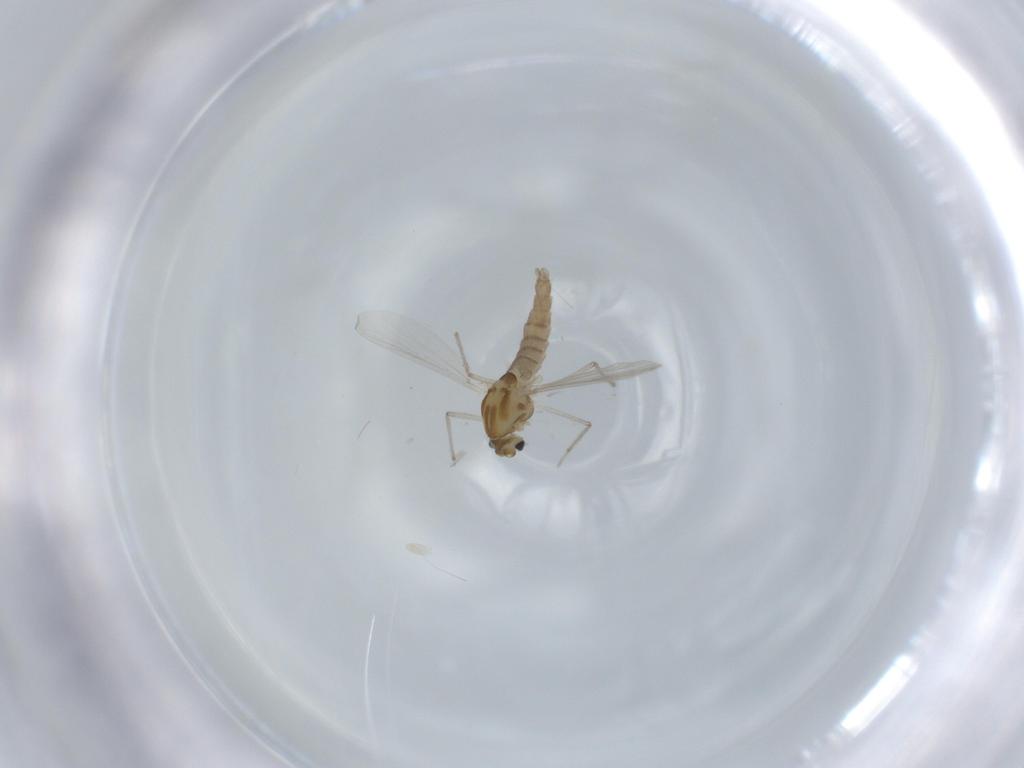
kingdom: Animalia
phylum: Arthropoda
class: Insecta
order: Diptera
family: Chironomidae
